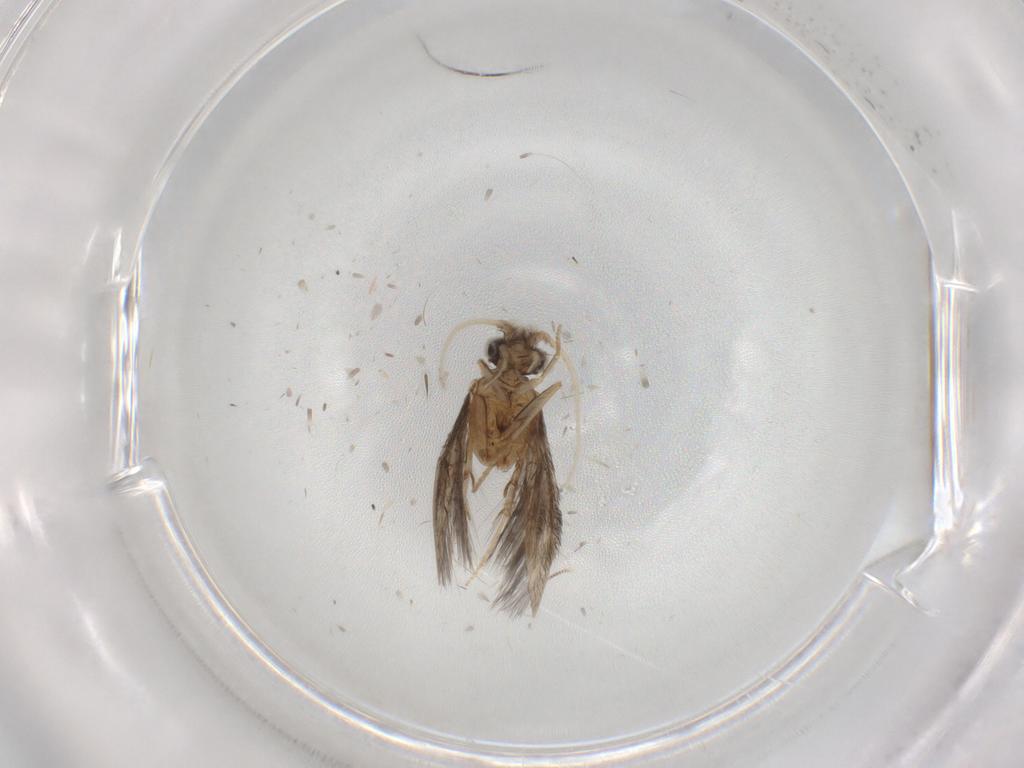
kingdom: Animalia
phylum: Arthropoda
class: Insecta
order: Trichoptera
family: Hydroptilidae
